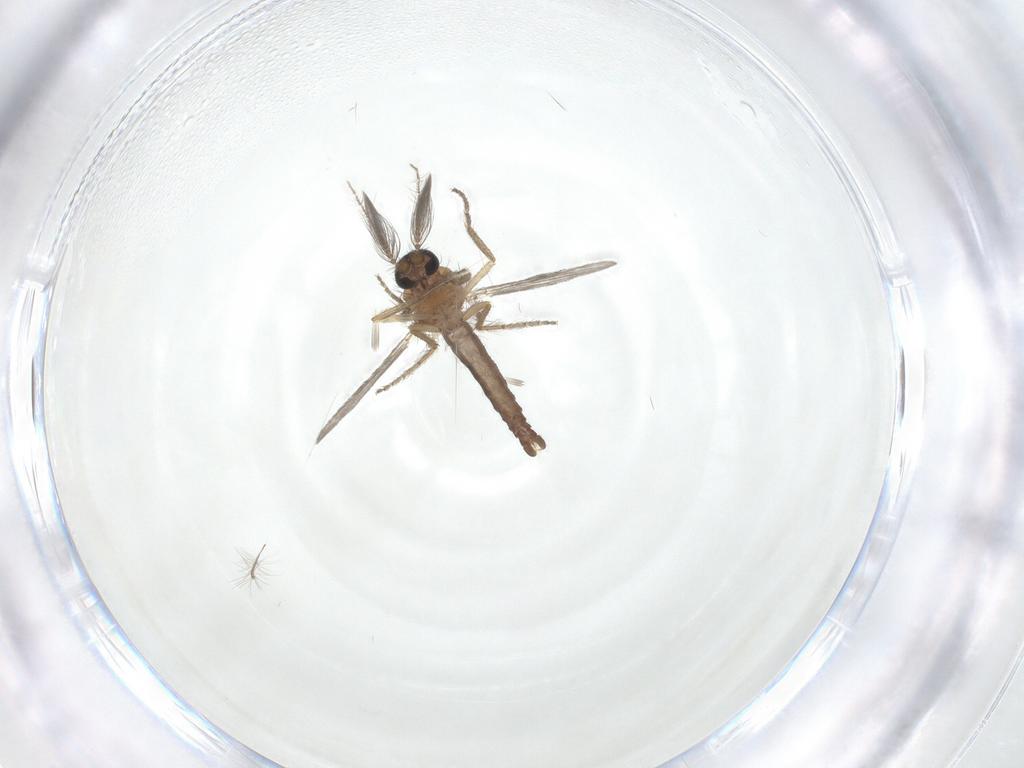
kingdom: Animalia
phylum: Arthropoda
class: Insecta
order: Diptera
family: Ceratopogonidae
